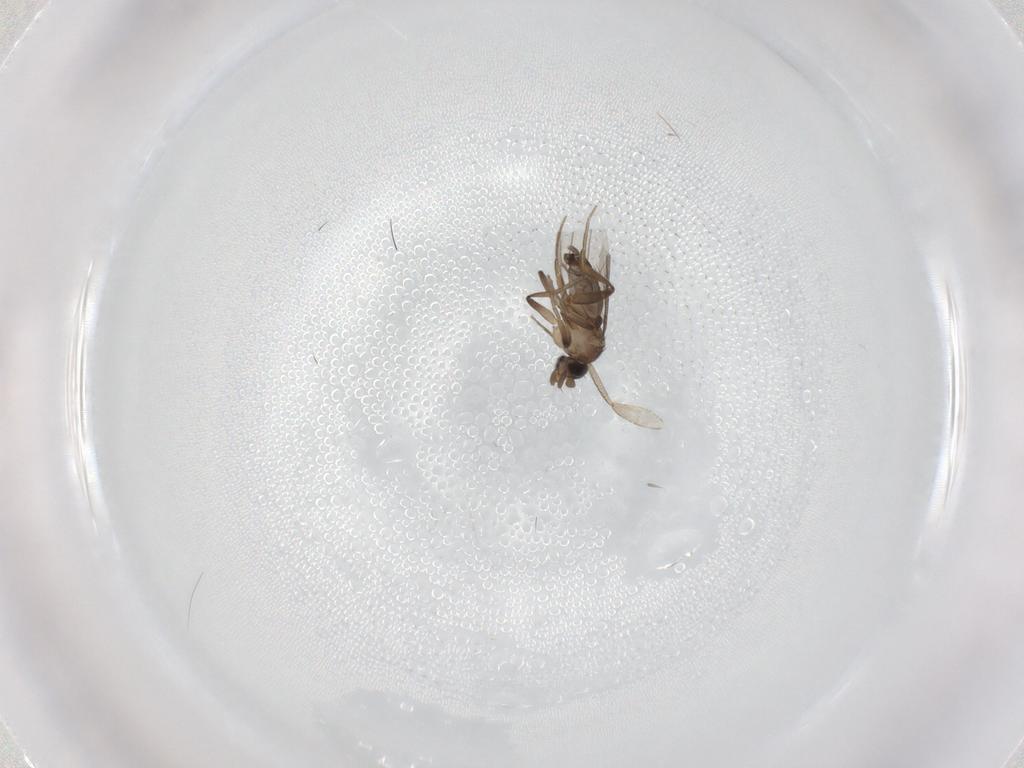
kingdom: Animalia
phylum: Arthropoda
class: Insecta
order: Diptera
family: Phoridae
